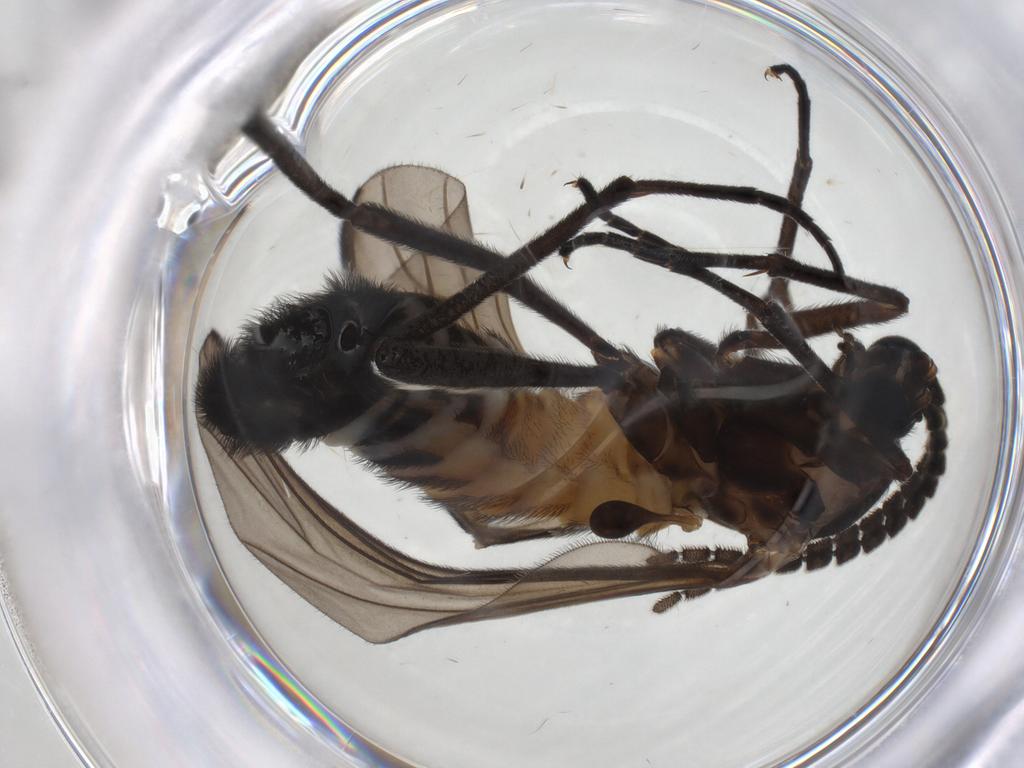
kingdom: Animalia
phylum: Arthropoda
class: Insecta
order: Diptera
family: Sciaridae
